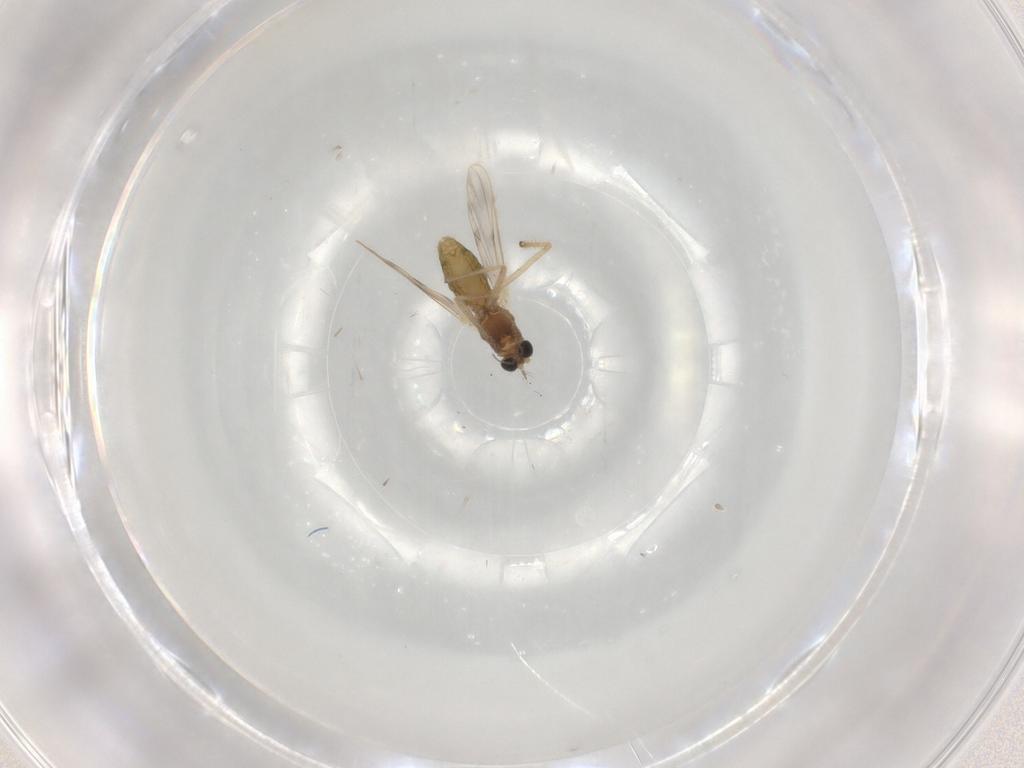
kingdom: Animalia
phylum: Arthropoda
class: Insecta
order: Diptera
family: Chironomidae
